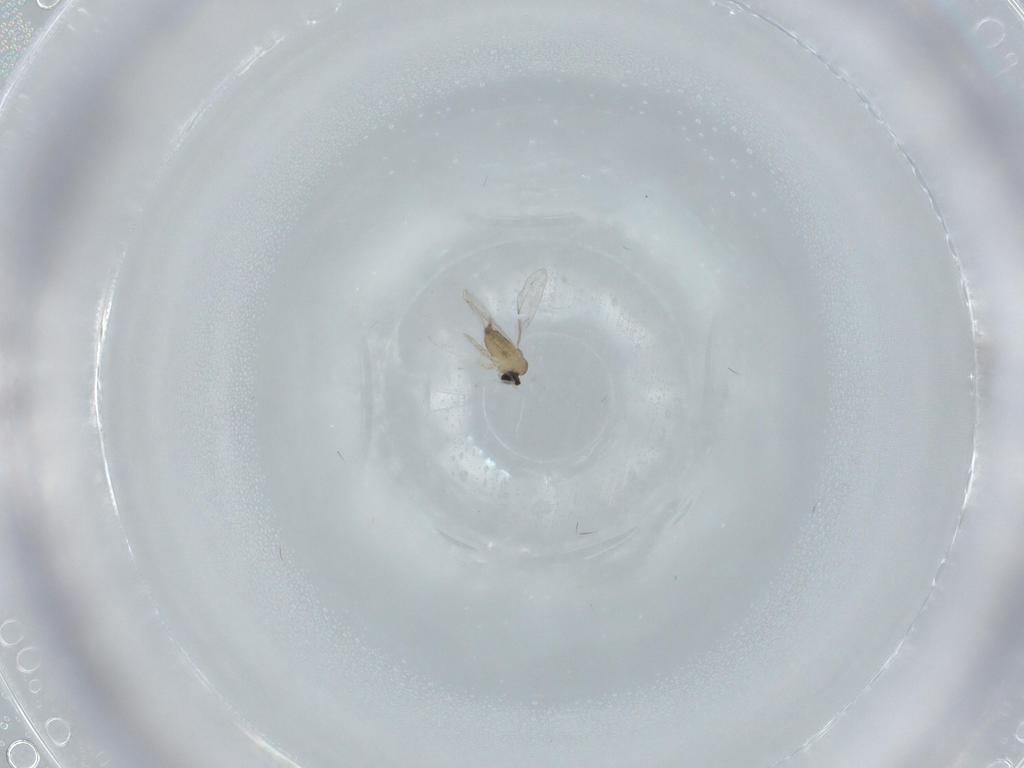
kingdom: Animalia
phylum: Arthropoda
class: Insecta
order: Diptera
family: Cecidomyiidae
